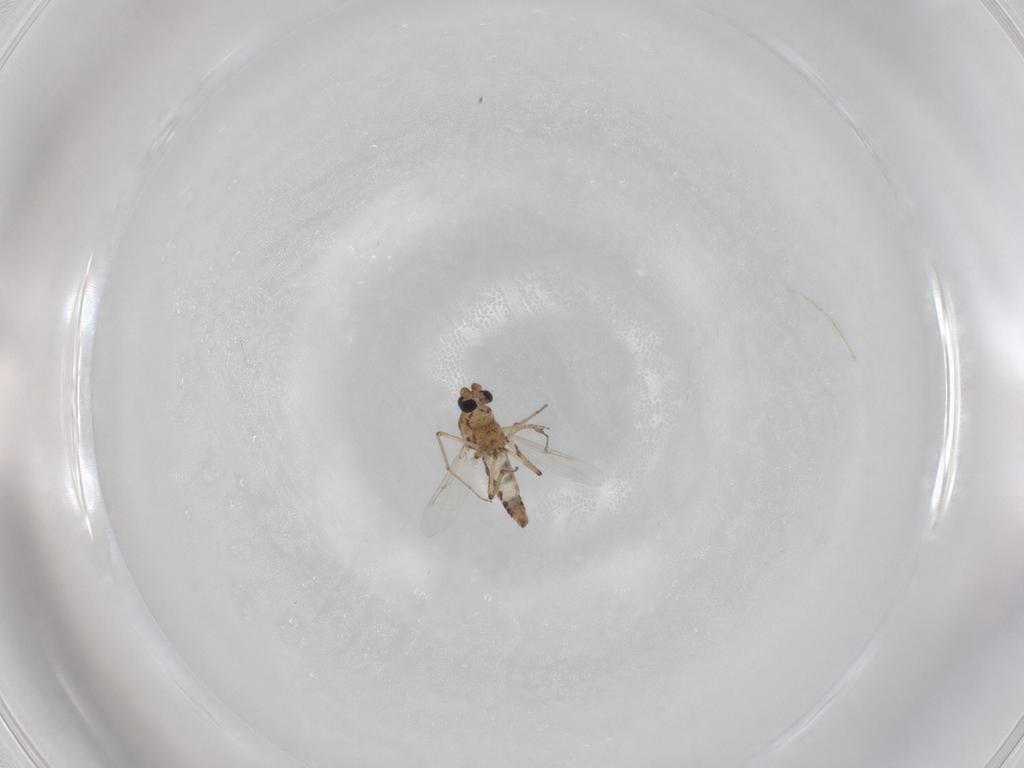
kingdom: Animalia
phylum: Arthropoda
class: Insecta
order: Diptera
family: Ceratopogonidae
